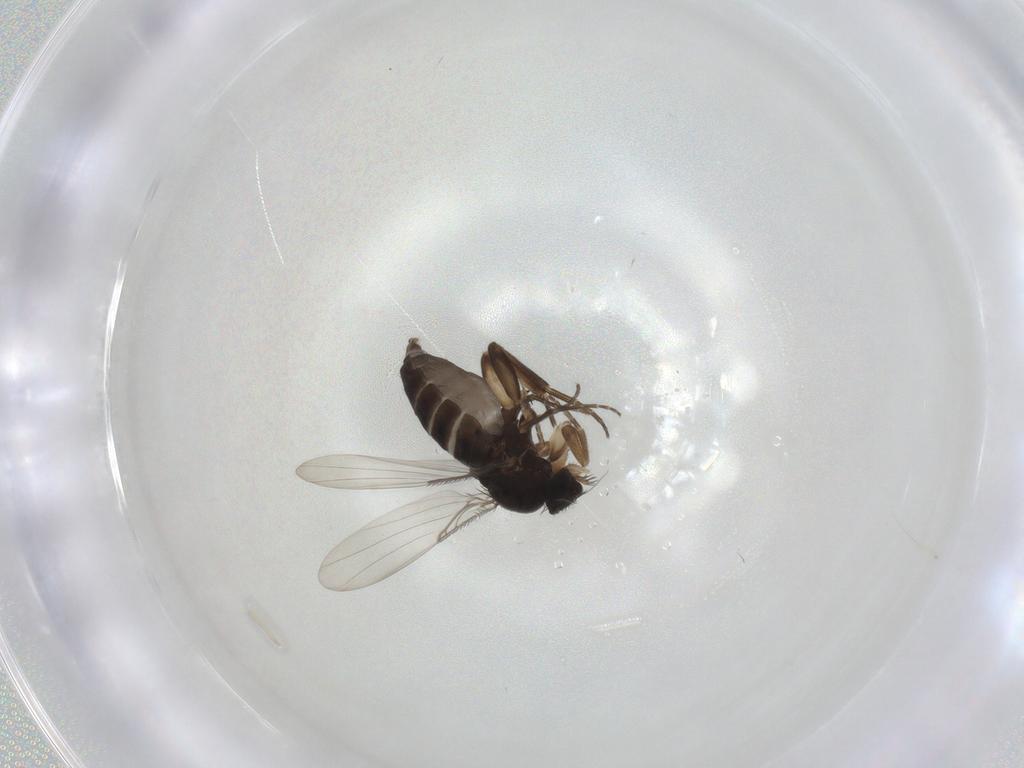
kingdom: Animalia
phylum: Arthropoda
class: Insecta
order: Diptera
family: Phoridae
